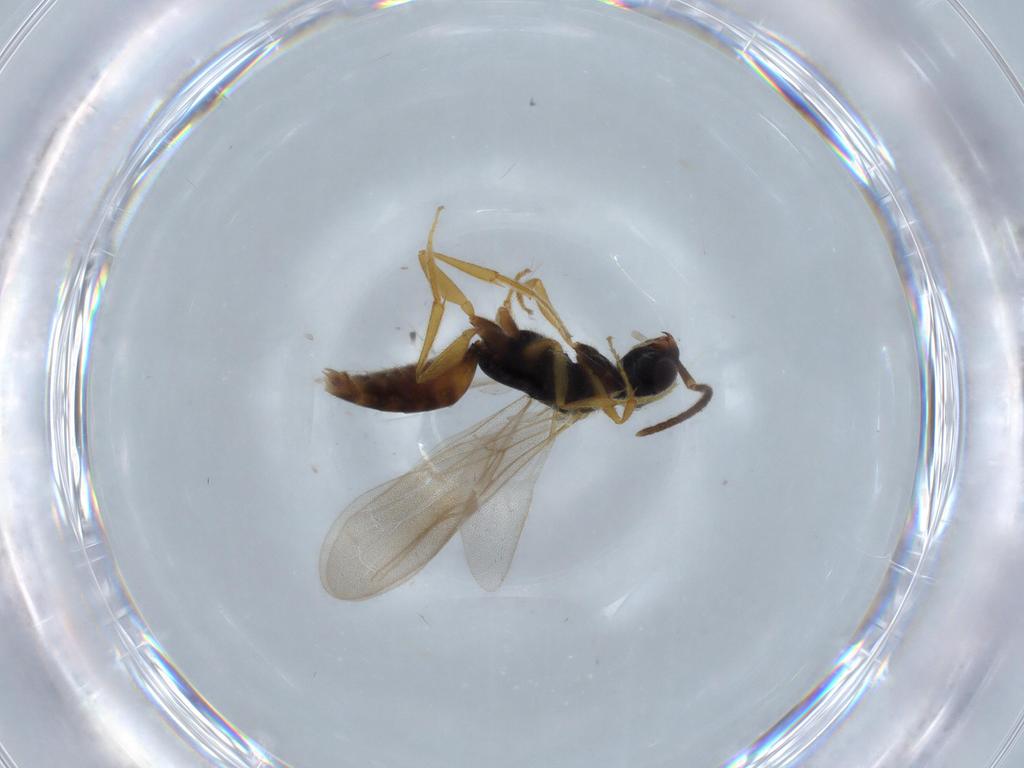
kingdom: Animalia
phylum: Arthropoda
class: Insecta
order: Hymenoptera
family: Bethylidae
